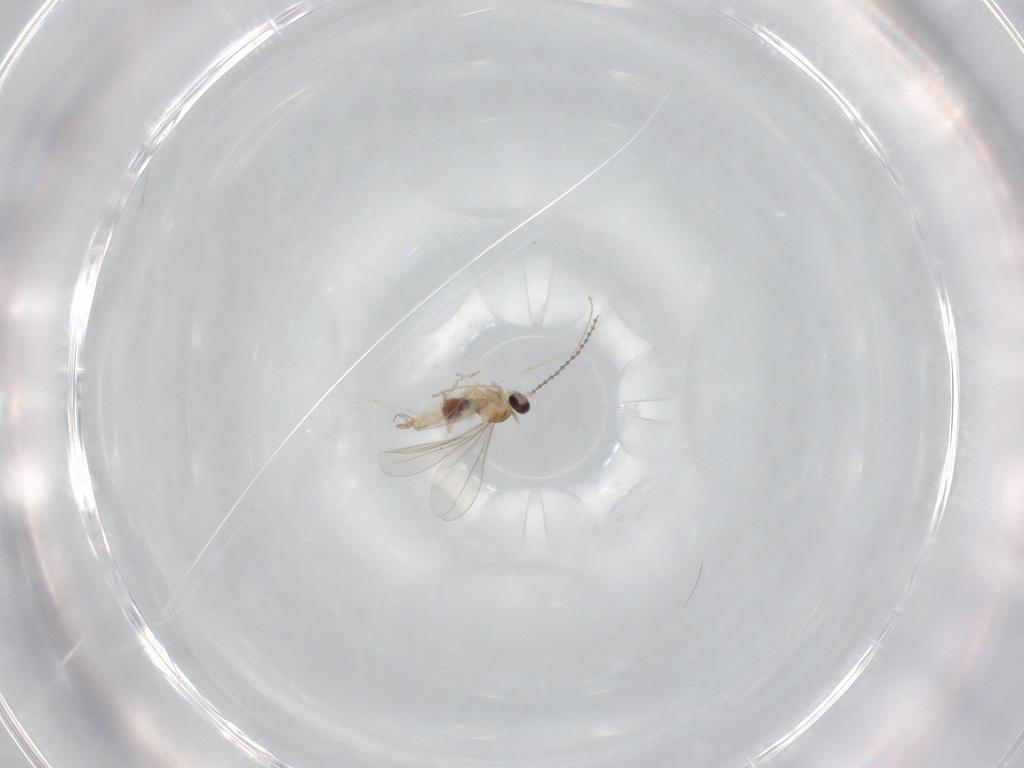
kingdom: Animalia
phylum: Arthropoda
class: Insecta
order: Diptera
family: Cecidomyiidae
